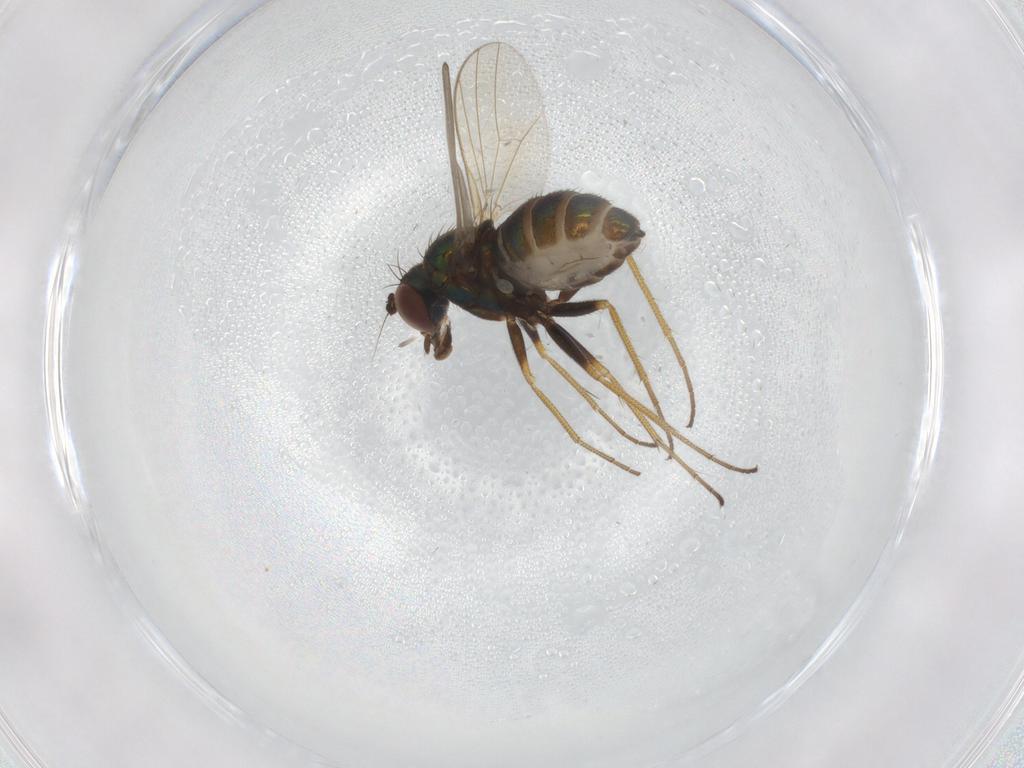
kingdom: Animalia
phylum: Arthropoda
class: Insecta
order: Diptera
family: Dolichopodidae
